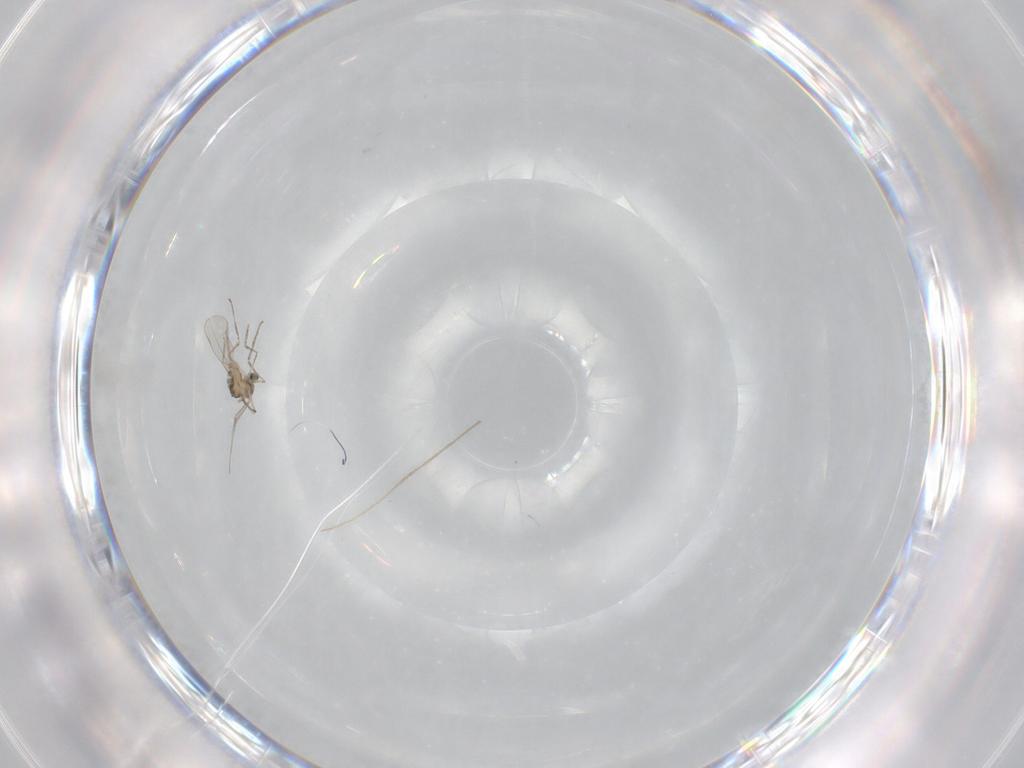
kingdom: Animalia
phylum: Arthropoda
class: Insecta
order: Diptera
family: Cecidomyiidae
